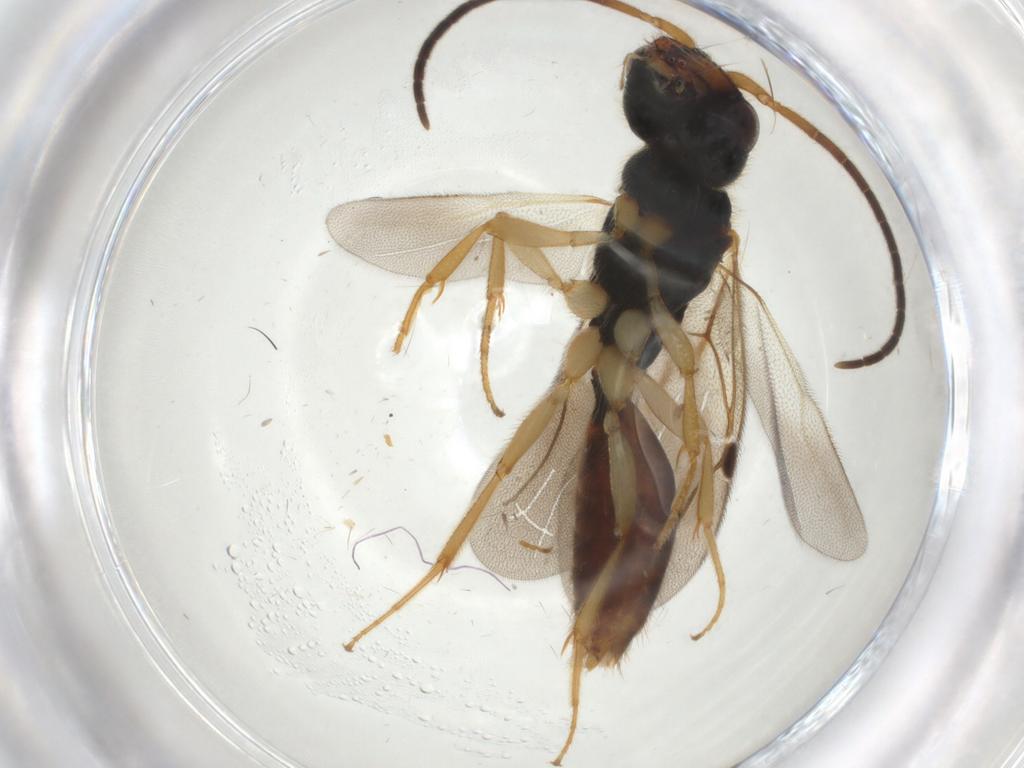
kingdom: Animalia
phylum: Arthropoda
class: Insecta
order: Hymenoptera
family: Bethylidae
